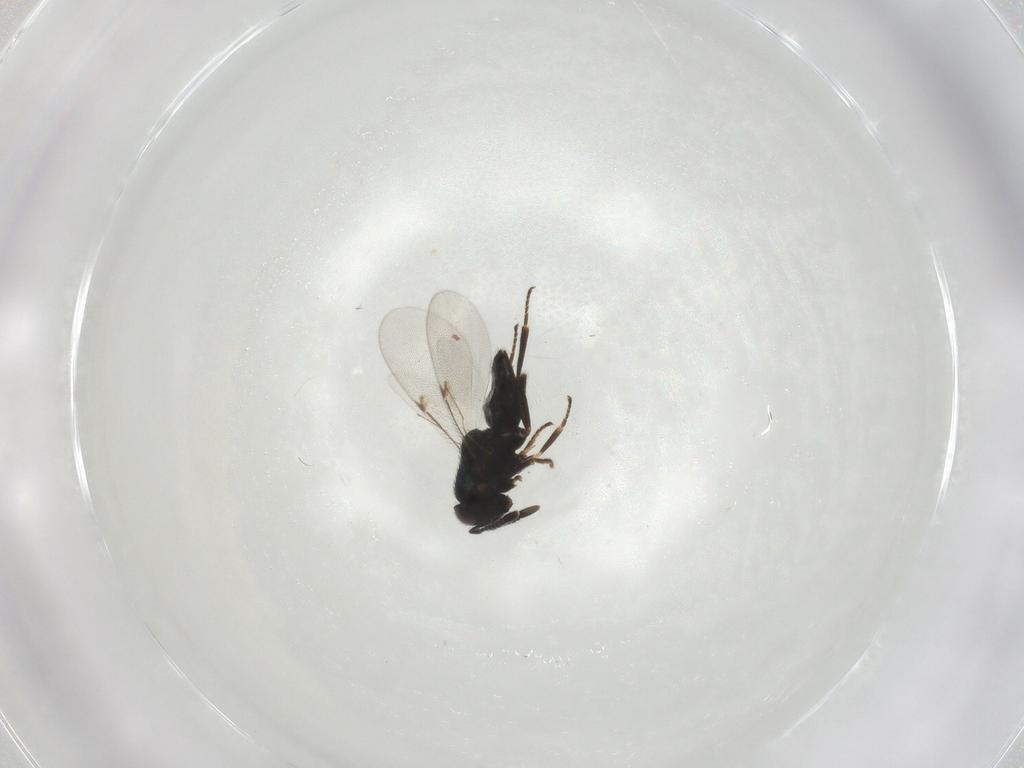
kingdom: Animalia
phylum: Arthropoda
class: Insecta
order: Hymenoptera
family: Encyrtidae
